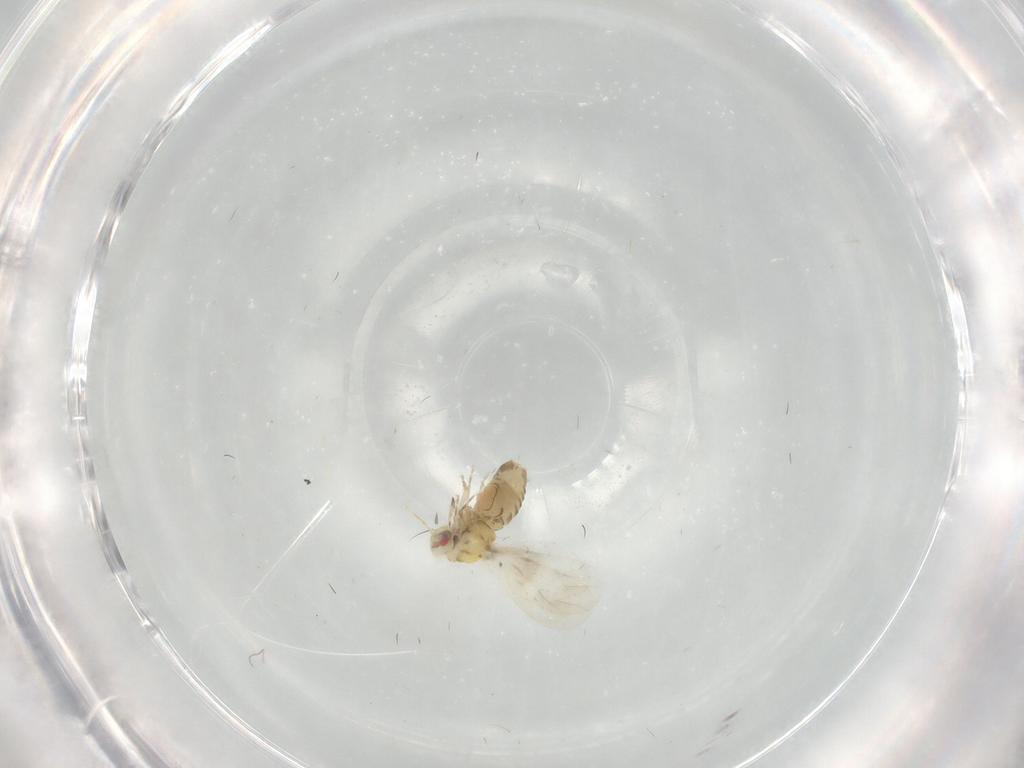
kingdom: Animalia
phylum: Arthropoda
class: Insecta
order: Hemiptera
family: Aleyrodidae
